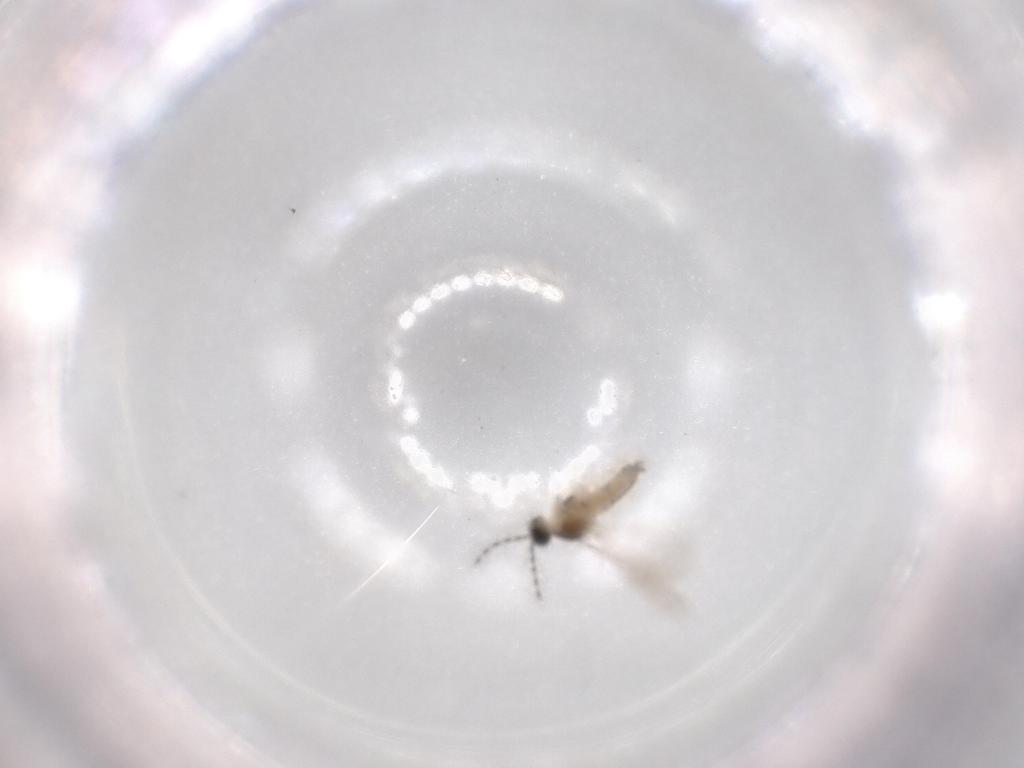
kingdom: Animalia
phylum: Arthropoda
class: Insecta
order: Diptera
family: Cecidomyiidae
